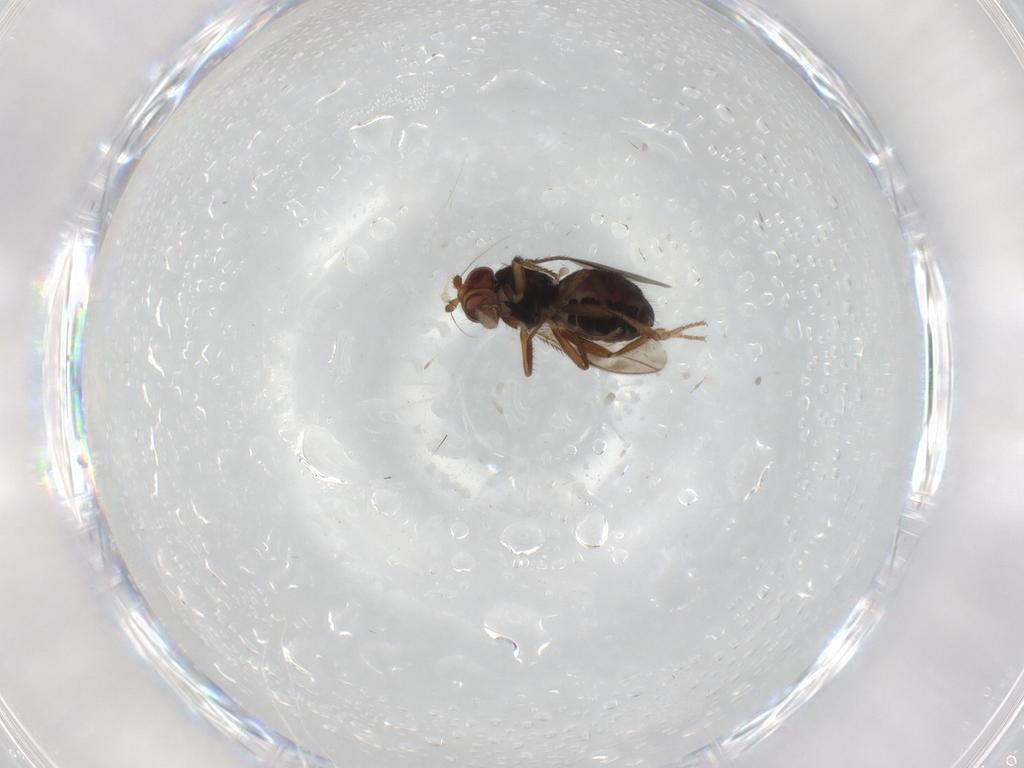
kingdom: Animalia
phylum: Arthropoda
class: Insecta
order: Diptera
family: Sphaeroceridae
